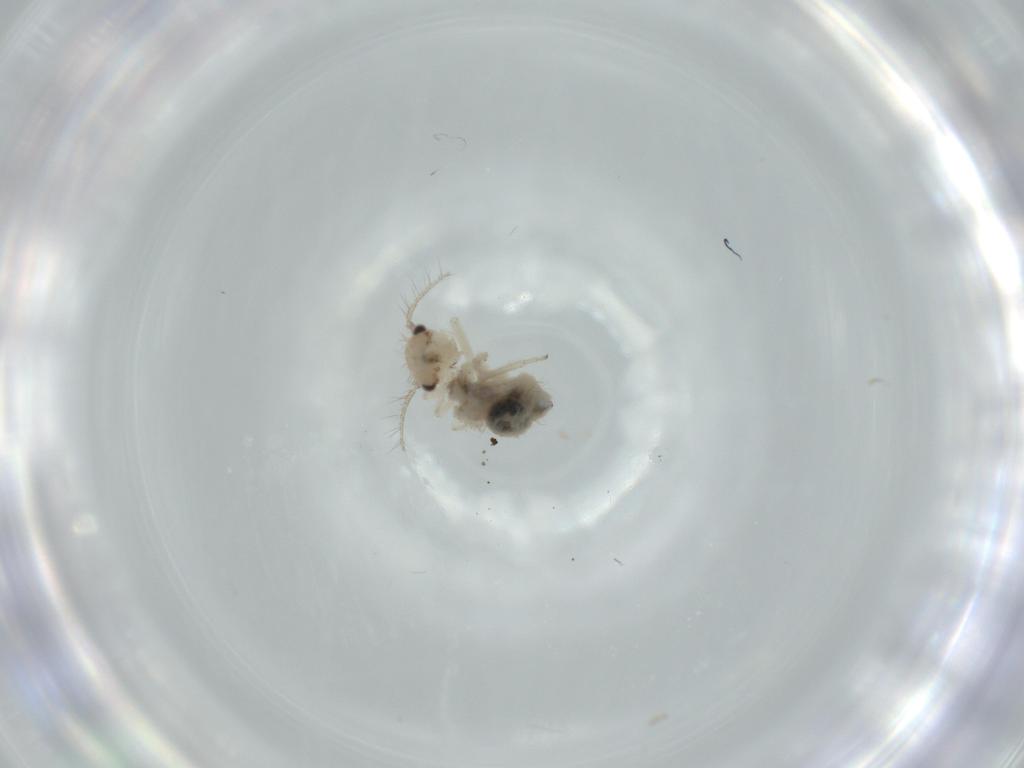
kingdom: Animalia
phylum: Arthropoda
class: Insecta
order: Psocodea
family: Pseudocaeciliidae
